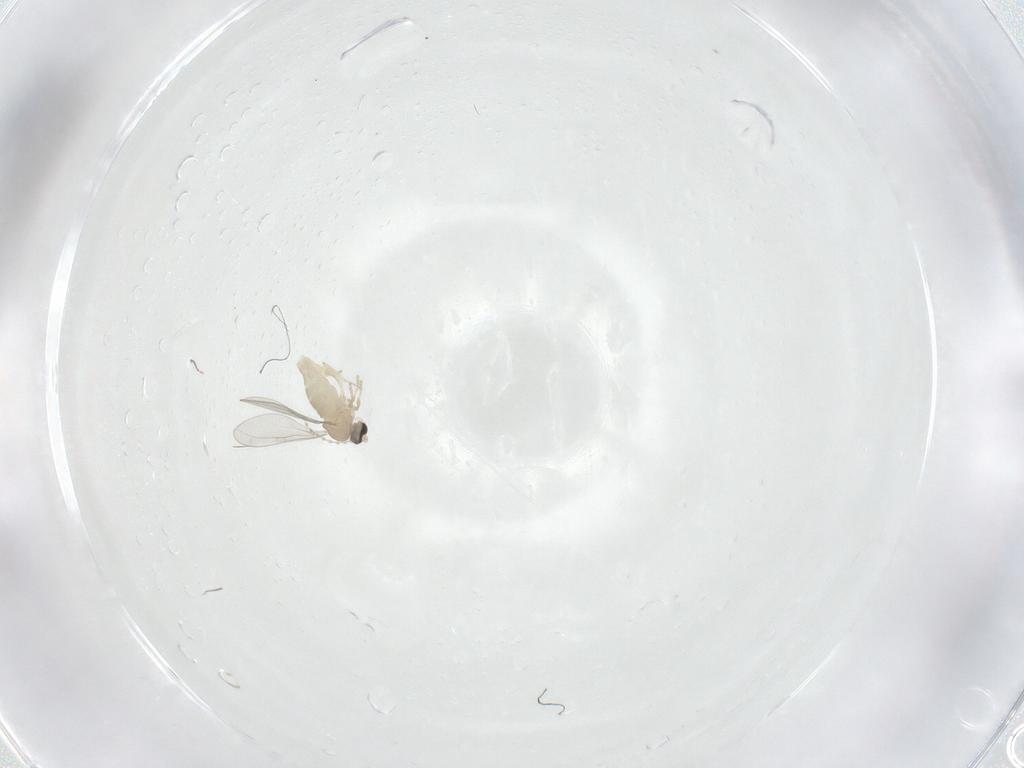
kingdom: Animalia
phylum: Arthropoda
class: Insecta
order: Diptera
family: Cecidomyiidae
